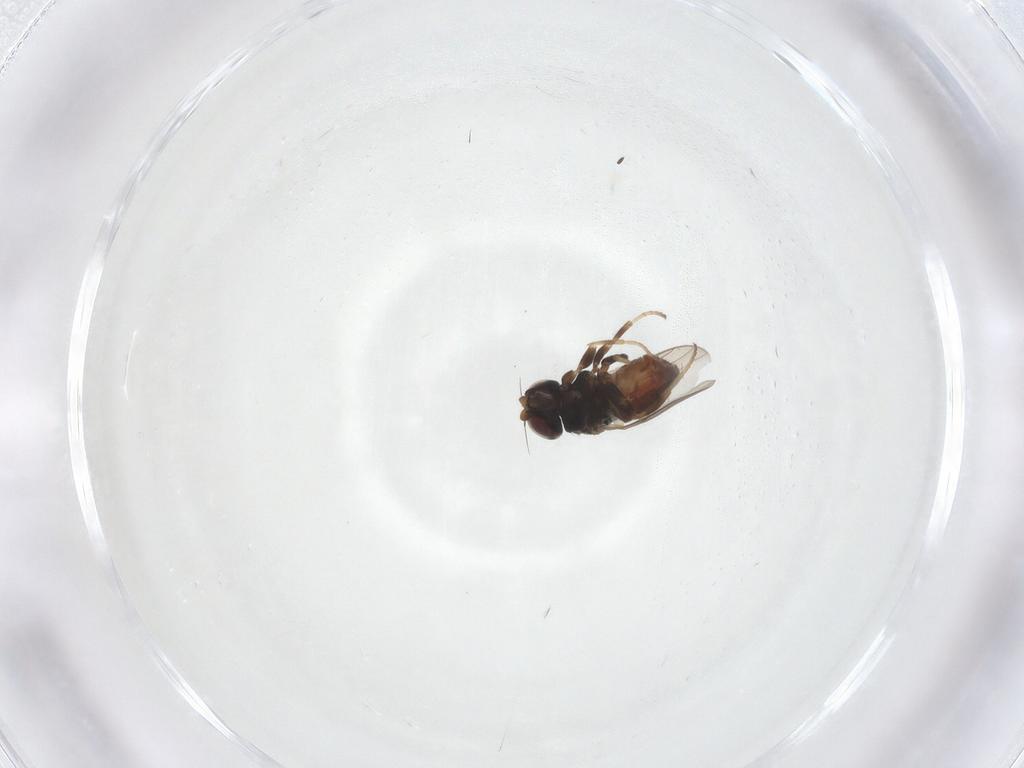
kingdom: Animalia
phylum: Arthropoda
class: Insecta
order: Diptera
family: Chloropidae
